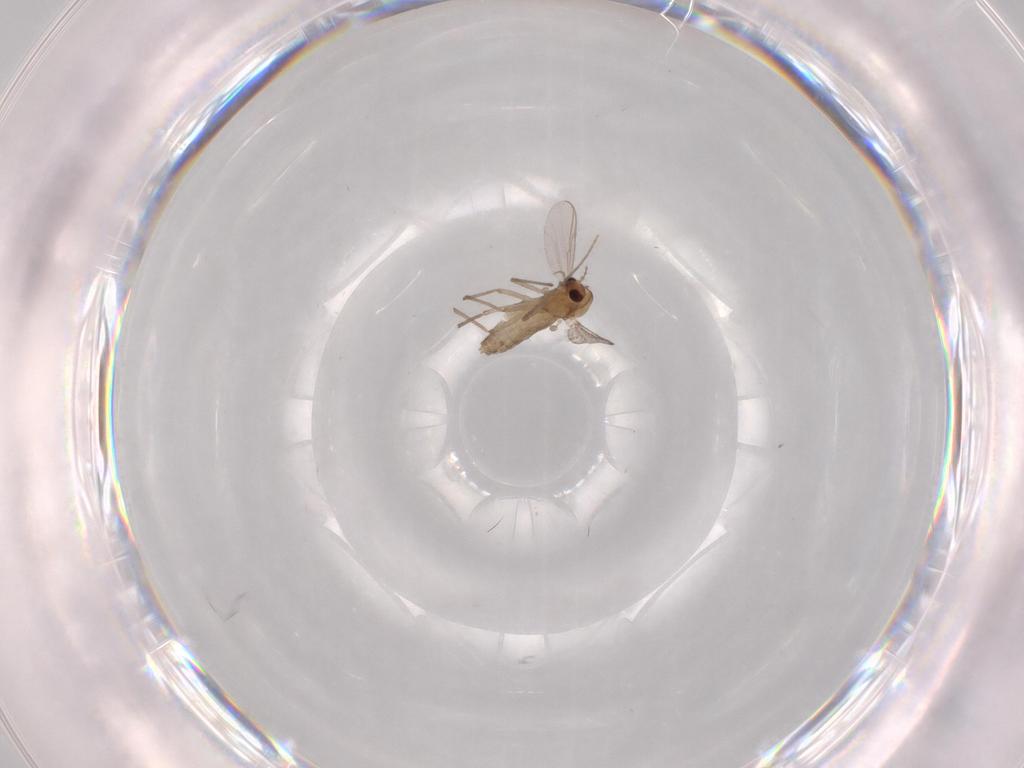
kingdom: Animalia
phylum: Arthropoda
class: Insecta
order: Diptera
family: Chironomidae
